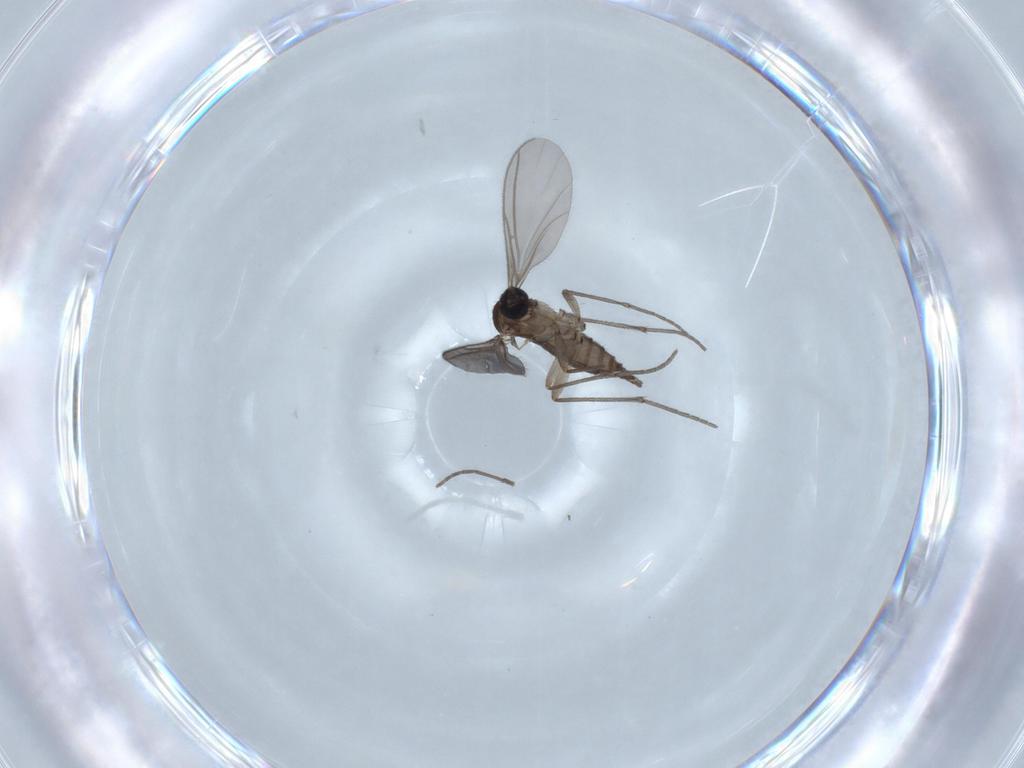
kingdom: Animalia
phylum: Arthropoda
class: Insecta
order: Diptera
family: Sciaridae
